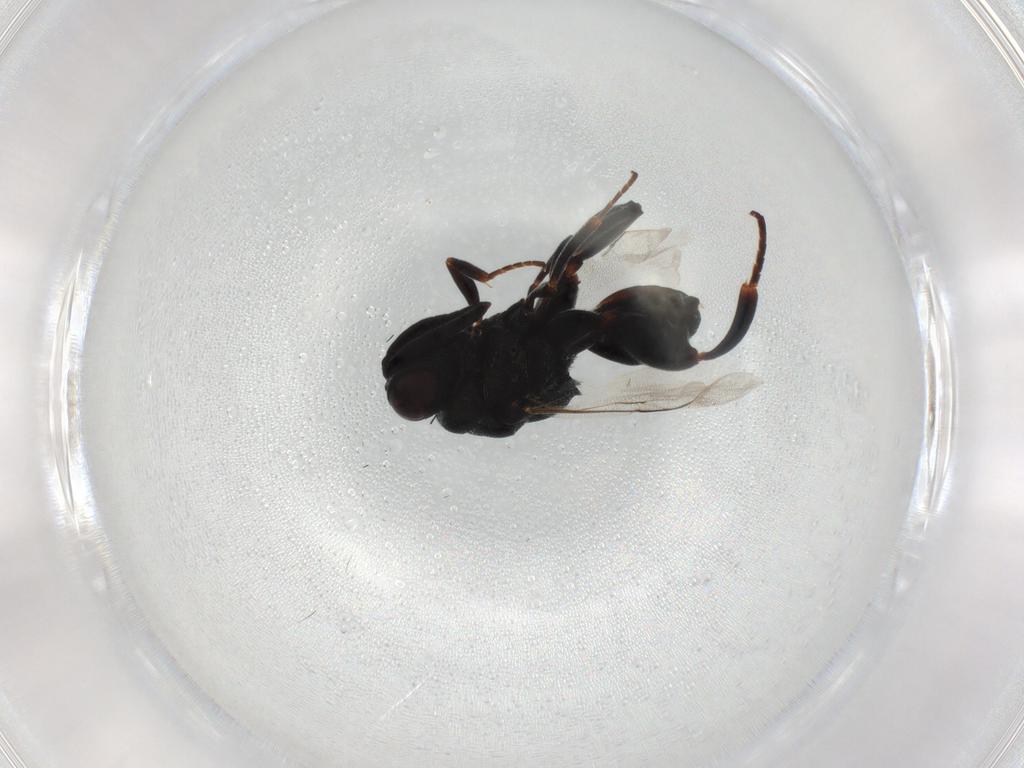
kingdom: Animalia
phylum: Arthropoda
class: Insecta
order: Hymenoptera
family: Bethylidae
